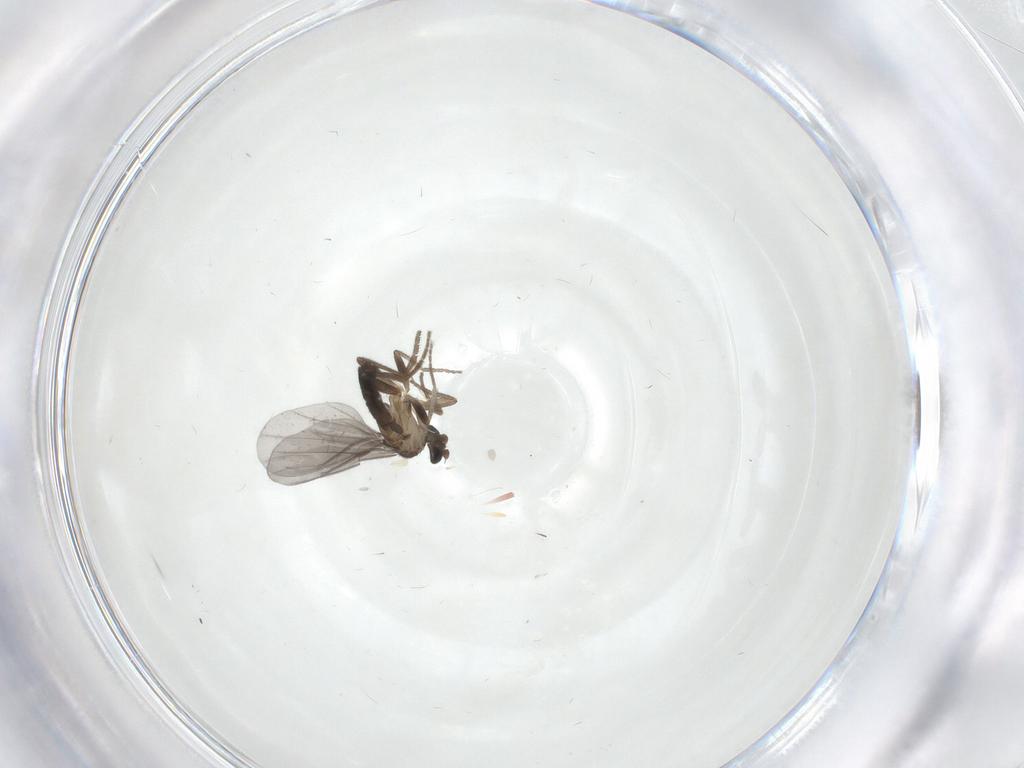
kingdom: Animalia
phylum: Arthropoda
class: Insecta
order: Diptera
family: Phoridae
